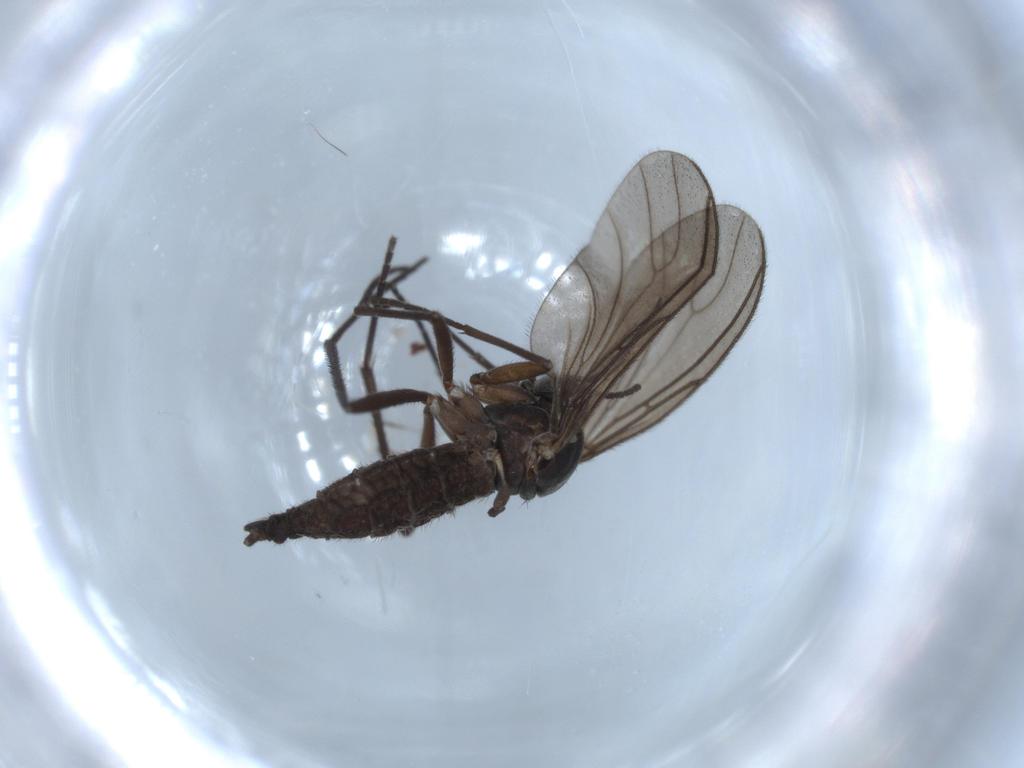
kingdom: Animalia
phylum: Arthropoda
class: Insecta
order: Diptera
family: Sciaridae
